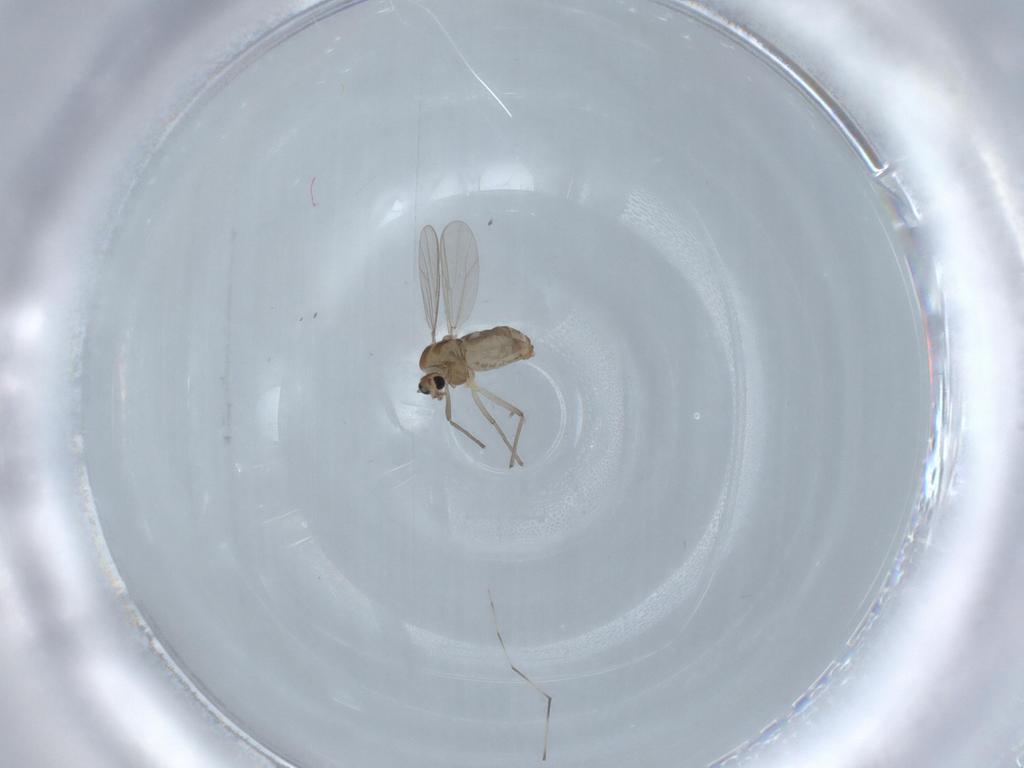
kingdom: Animalia
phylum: Arthropoda
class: Insecta
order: Diptera
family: Chironomidae
